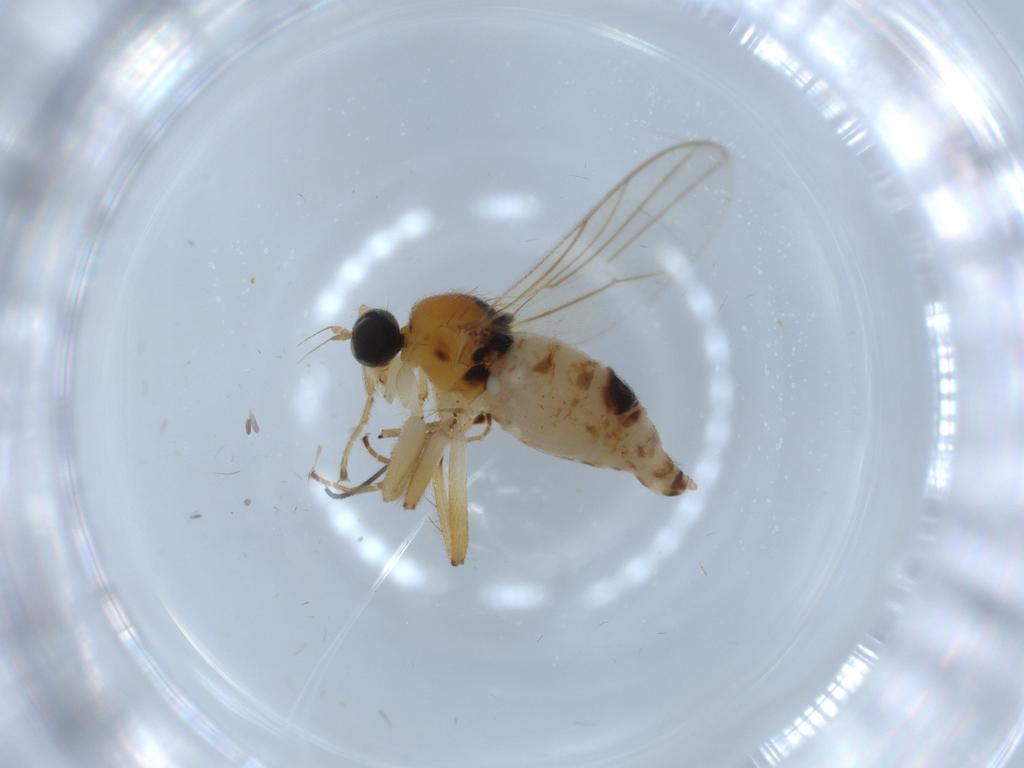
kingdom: Animalia
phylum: Arthropoda
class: Insecta
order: Diptera
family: Hybotidae
